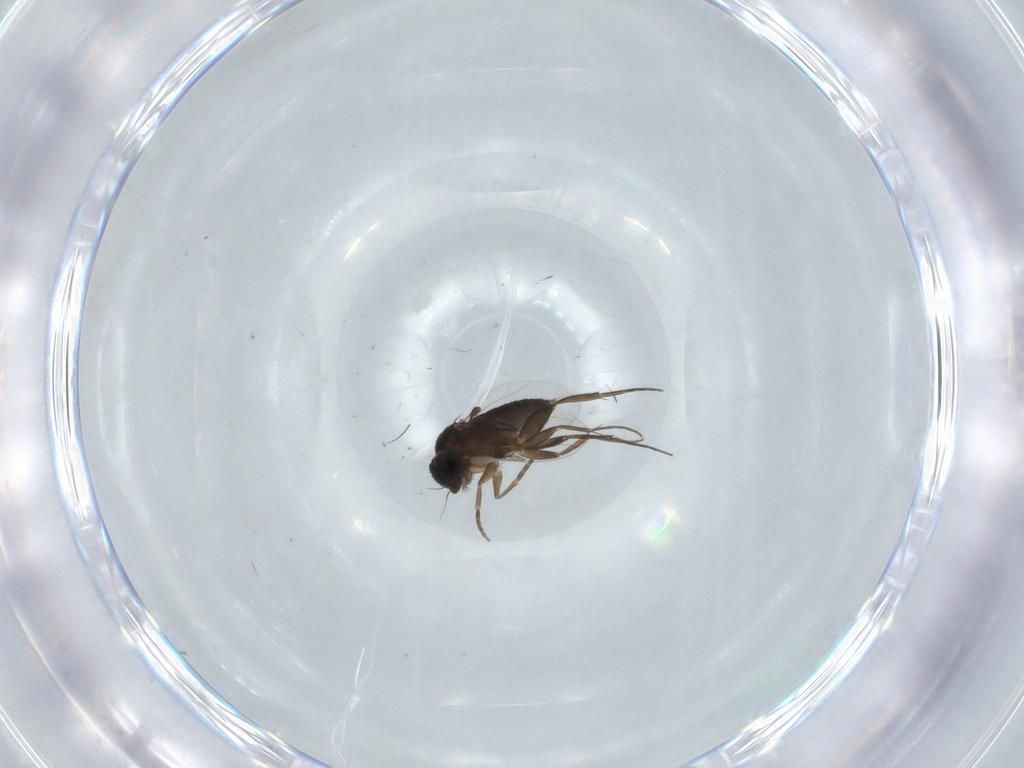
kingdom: Animalia
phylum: Arthropoda
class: Insecta
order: Diptera
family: Phoridae
